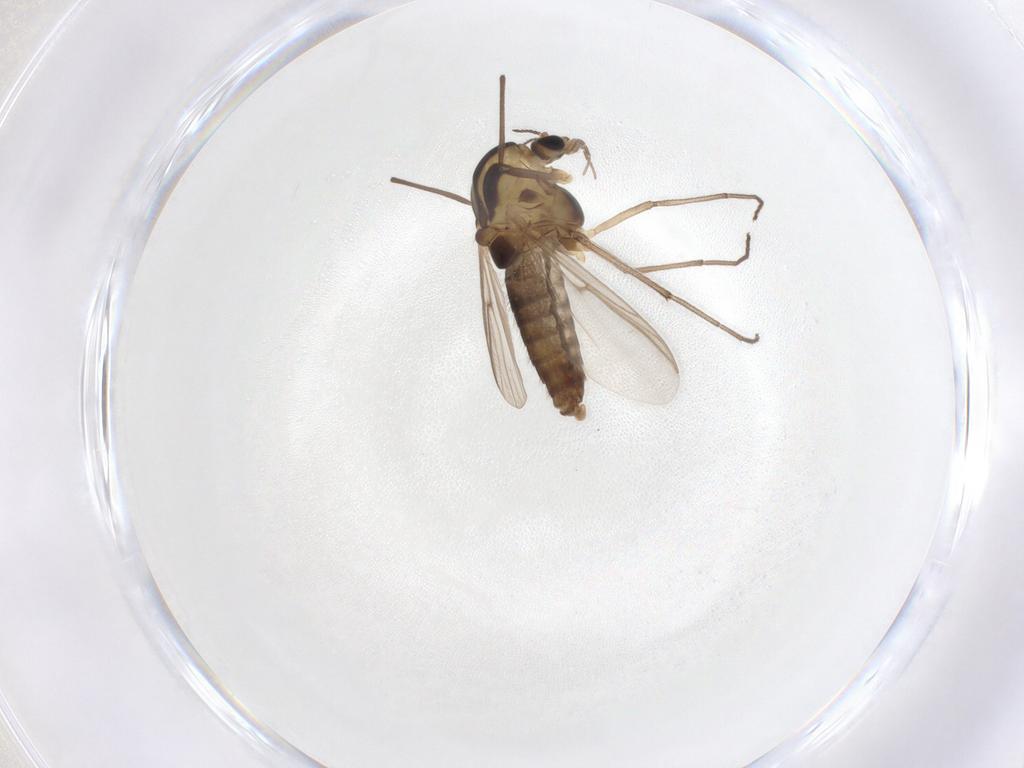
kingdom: Animalia
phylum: Arthropoda
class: Insecta
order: Diptera
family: Chironomidae
